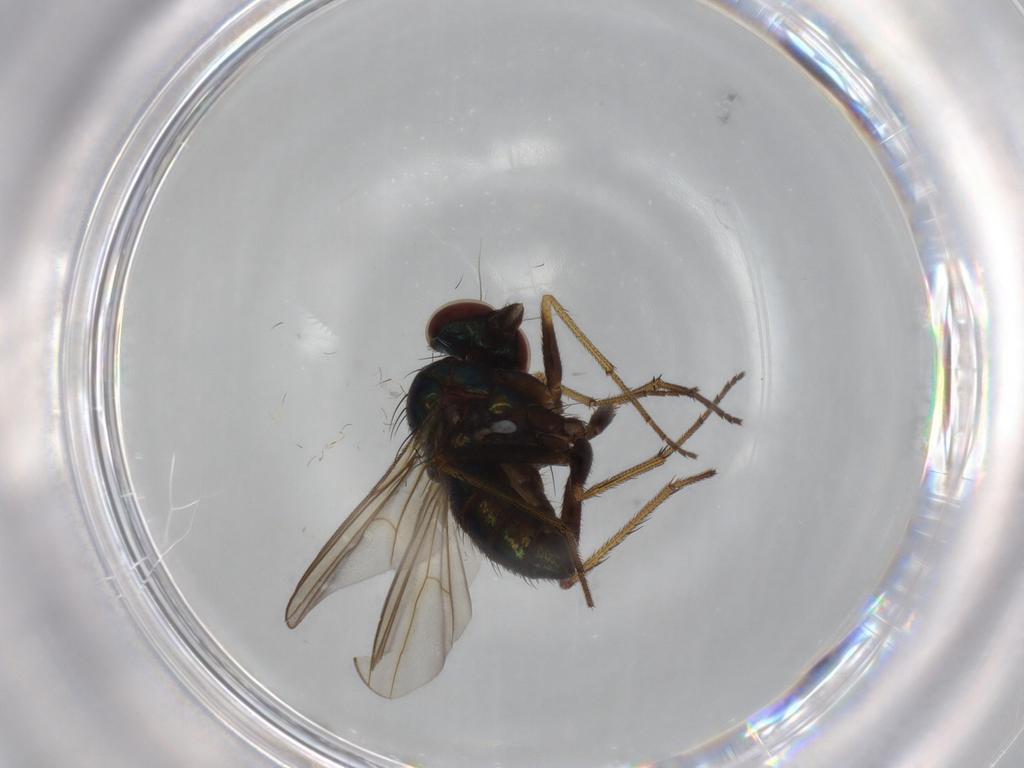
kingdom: Animalia
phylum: Arthropoda
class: Insecta
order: Diptera
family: Dolichopodidae
